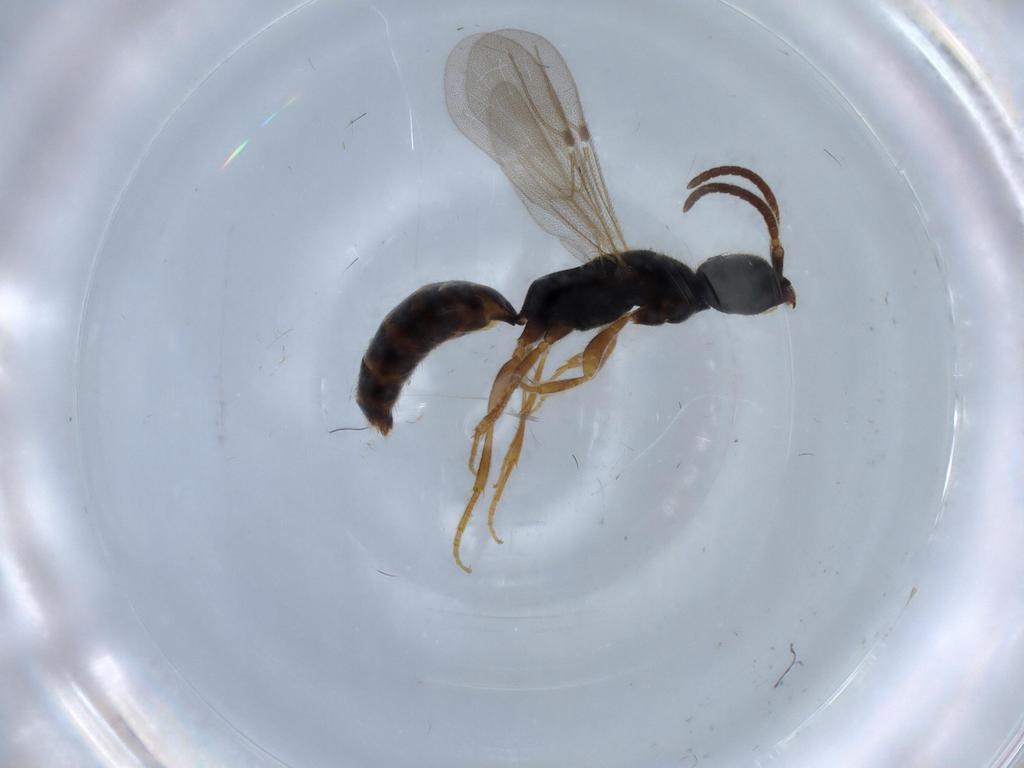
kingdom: Animalia
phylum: Arthropoda
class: Insecta
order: Hymenoptera
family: Bethylidae
